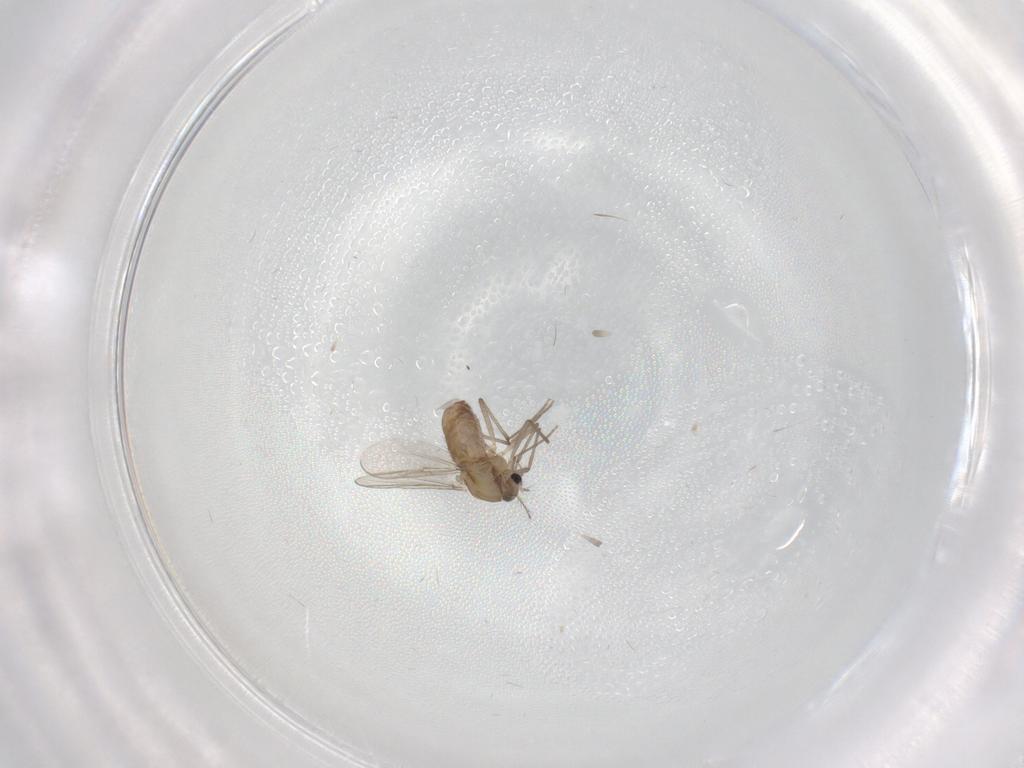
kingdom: Animalia
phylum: Arthropoda
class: Insecta
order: Diptera
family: Chironomidae
